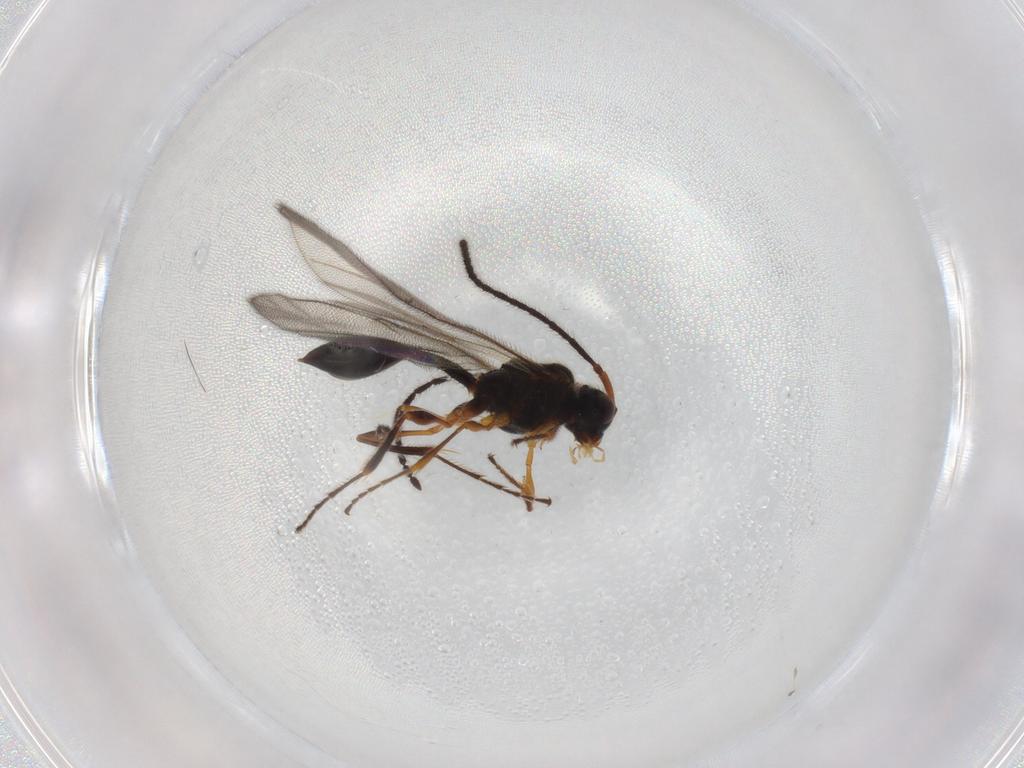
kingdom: Animalia
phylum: Arthropoda
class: Insecta
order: Hymenoptera
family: Diapriidae
